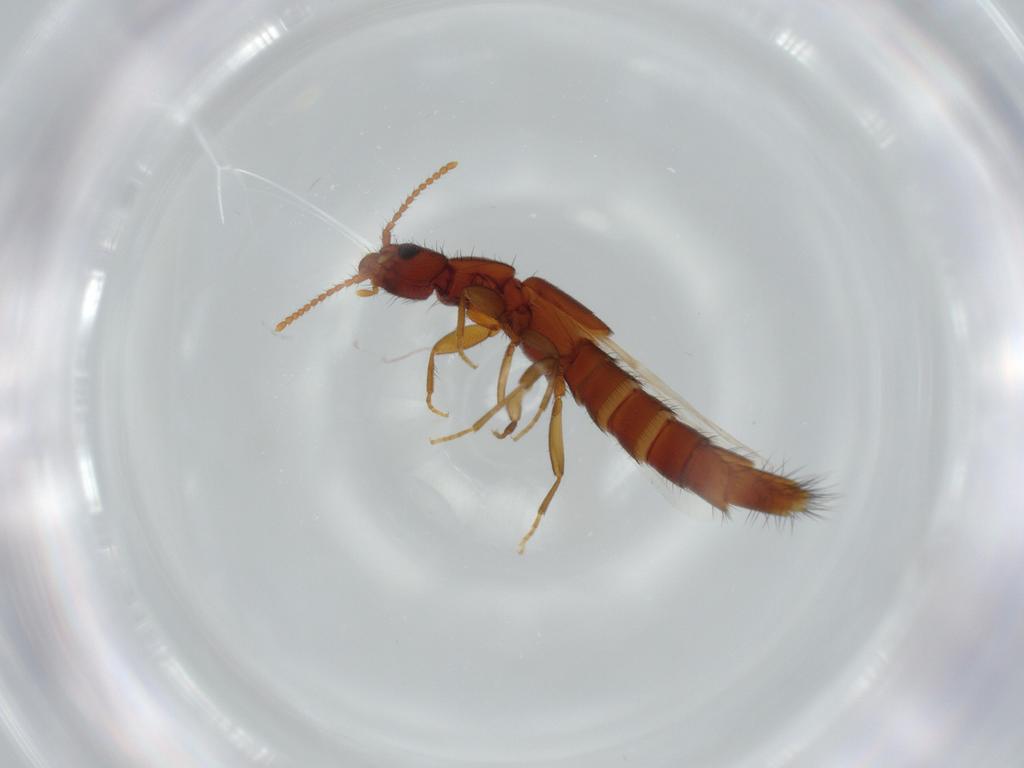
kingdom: Animalia
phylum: Arthropoda
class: Insecta
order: Coleoptera
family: Staphylinidae
